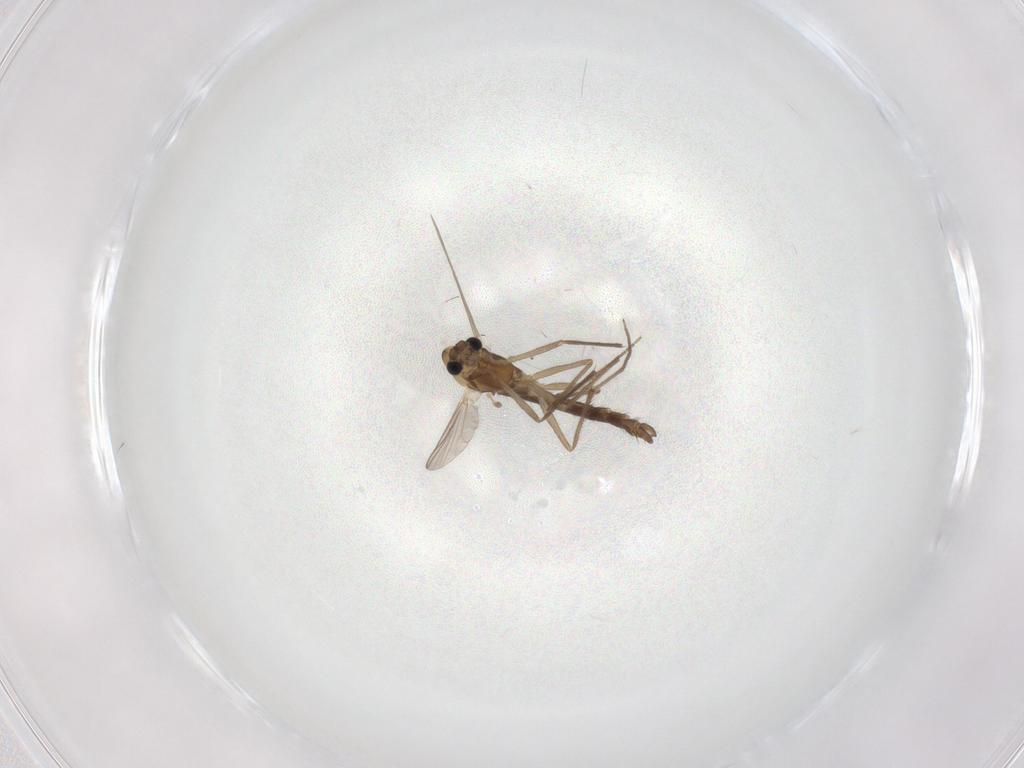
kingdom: Animalia
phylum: Arthropoda
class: Insecta
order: Diptera
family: Chironomidae
